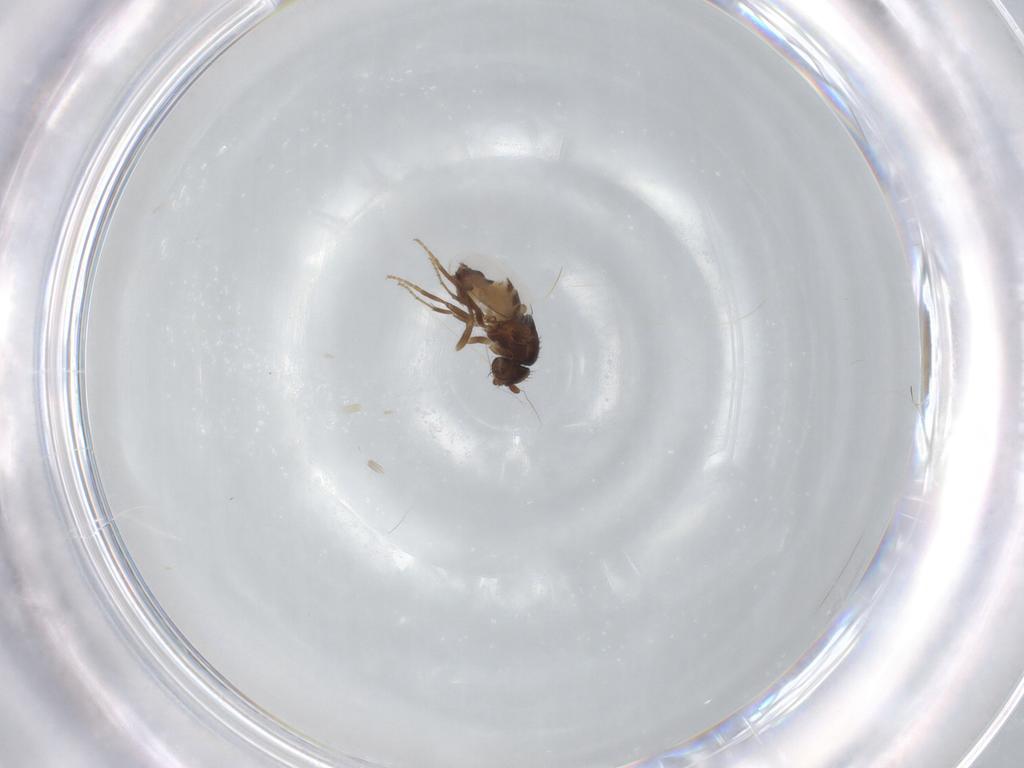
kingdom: Animalia
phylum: Arthropoda
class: Insecta
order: Diptera
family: Sphaeroceridae
